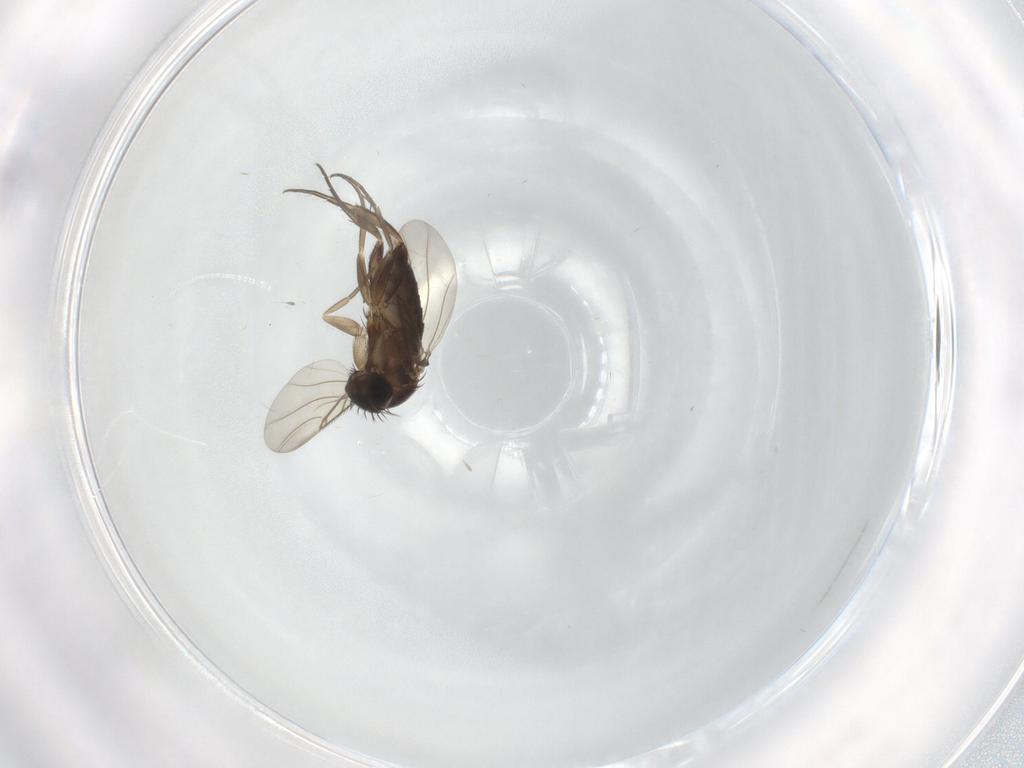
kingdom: Animalia
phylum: Arthropoda
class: Insecta
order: Diptera
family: Phoridae
